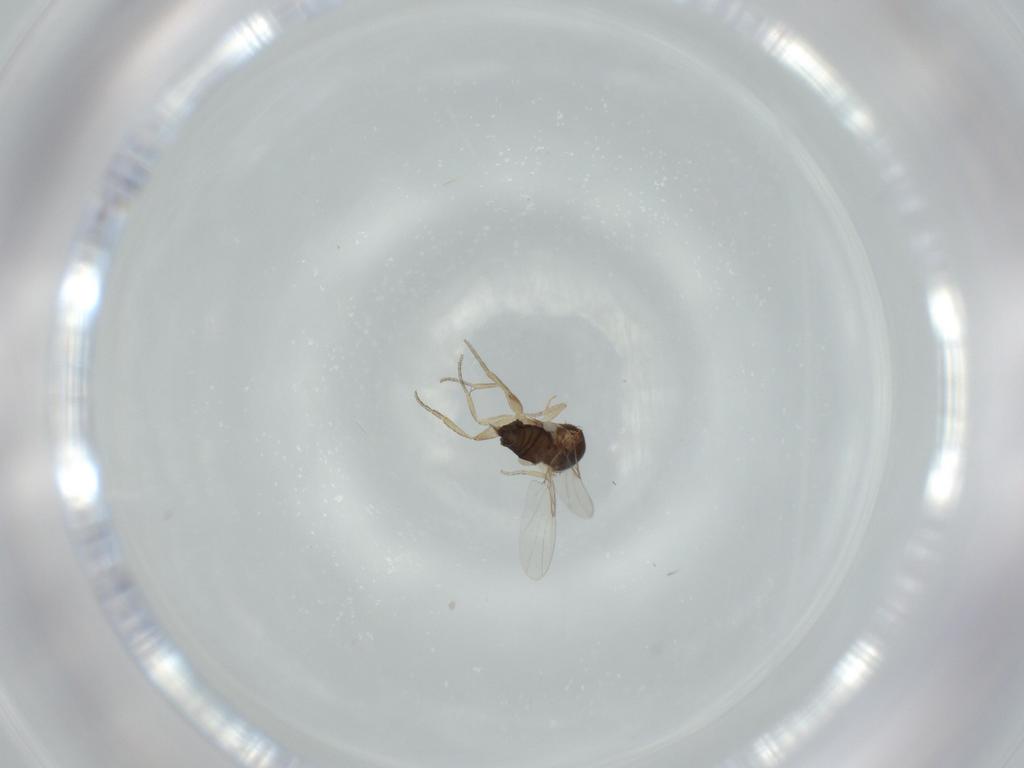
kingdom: Animalia
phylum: Arthropoda
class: Insecta
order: Diptera
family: Phoridae
